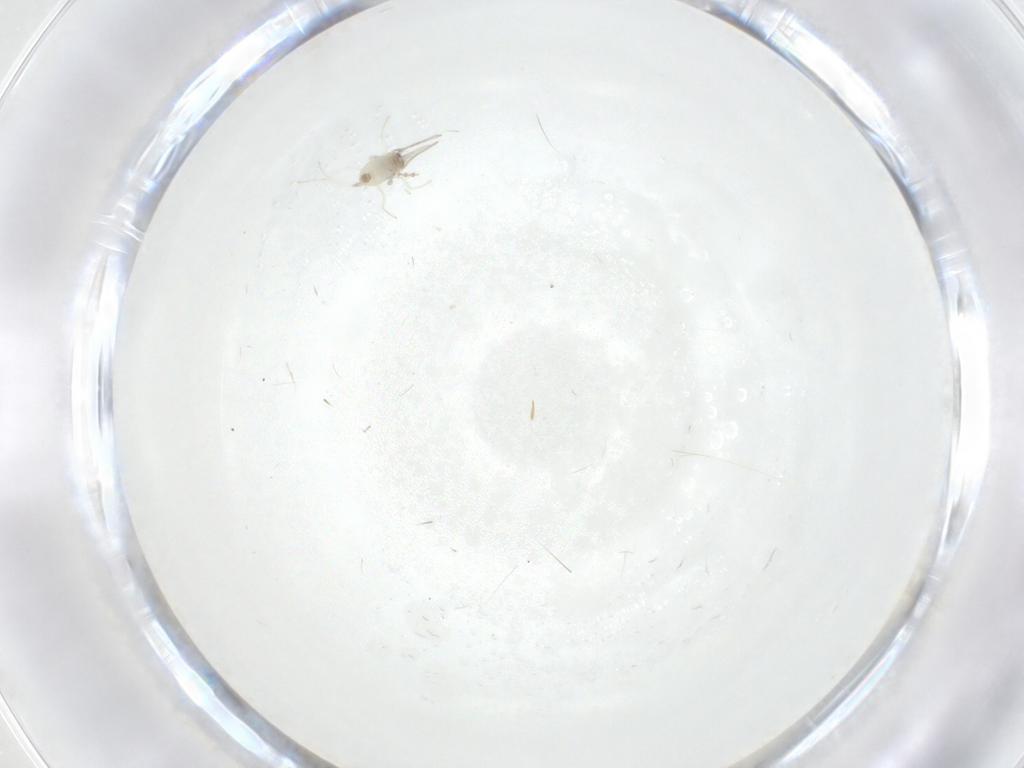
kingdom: Animalia
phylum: Arthropoda
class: Insecta
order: Diptera
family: Cecidomyiidae
